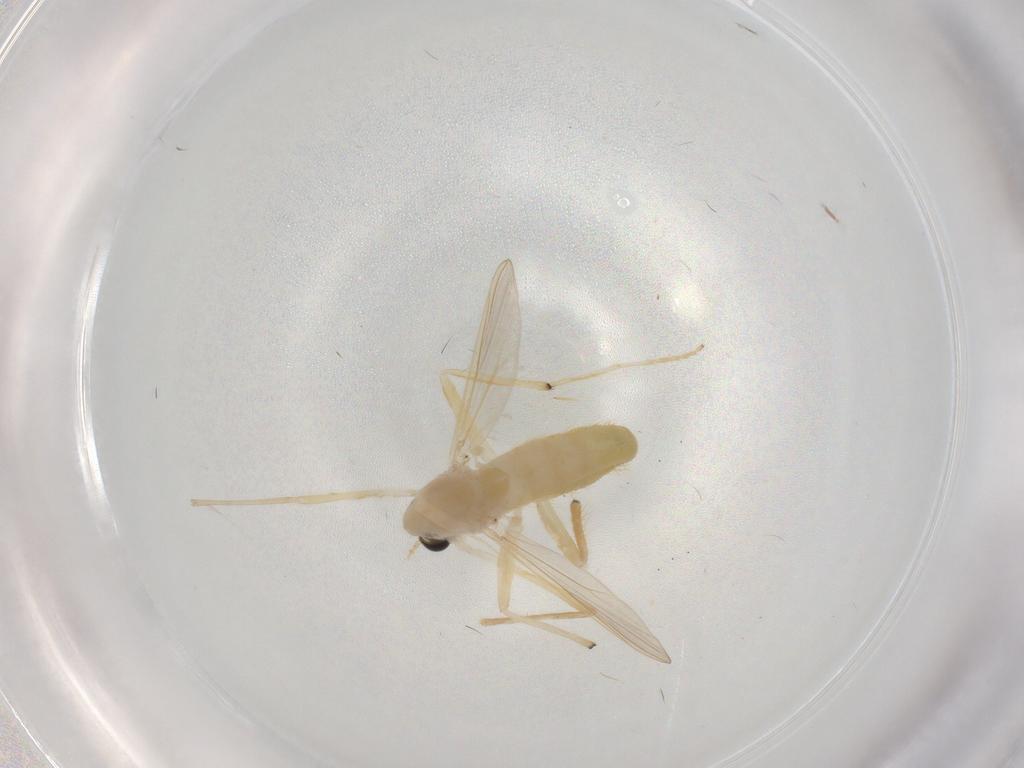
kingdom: Animalia
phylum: Arthropoda
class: Insecta
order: Diptera
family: Chironomidae
